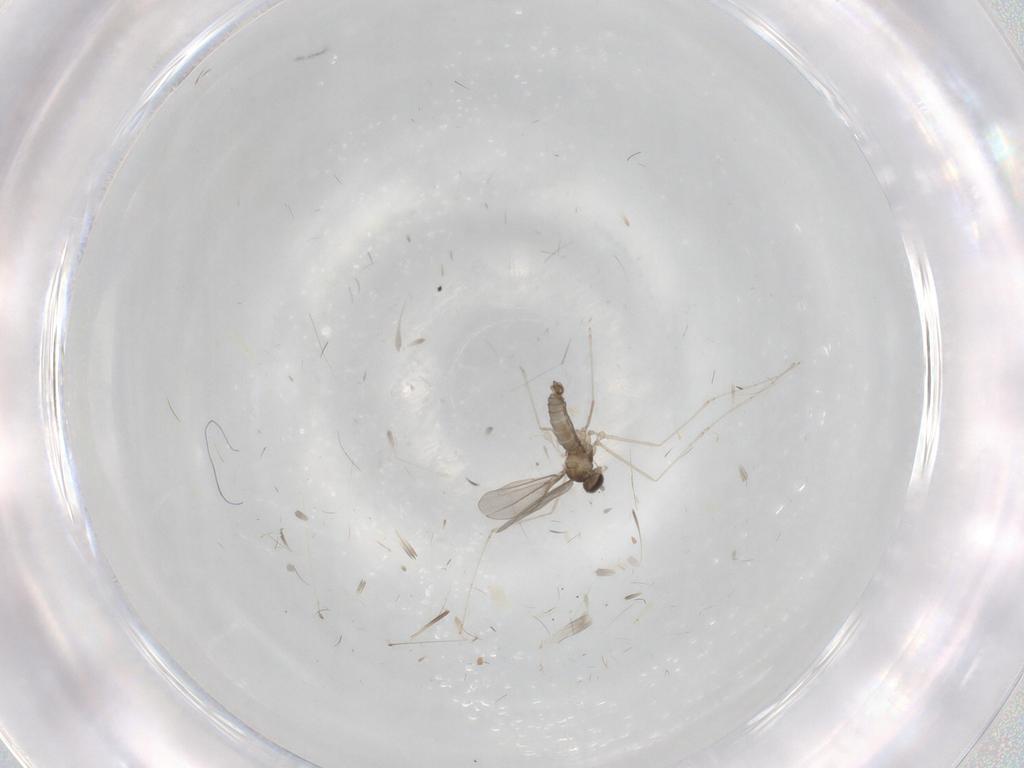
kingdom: Animalia
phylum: Arthropoda
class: Insecta
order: Diptera
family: Cecidomyiidae
